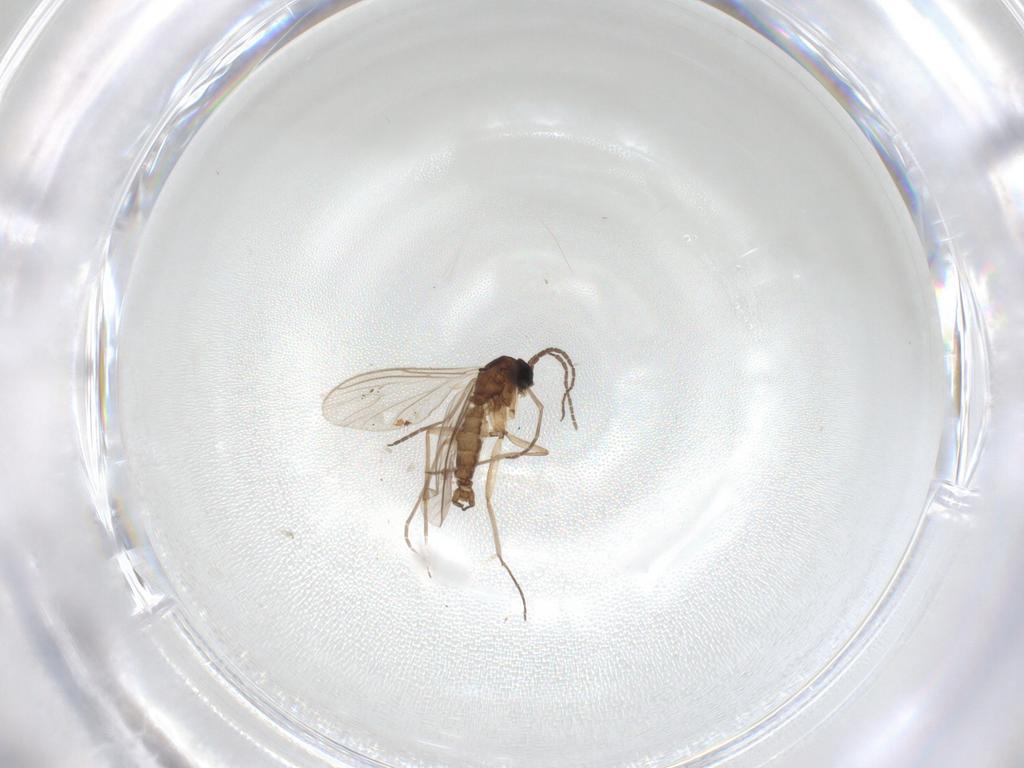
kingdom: Animalia
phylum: Arthropoda
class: Insecta
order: Diptera
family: Sciaridae
